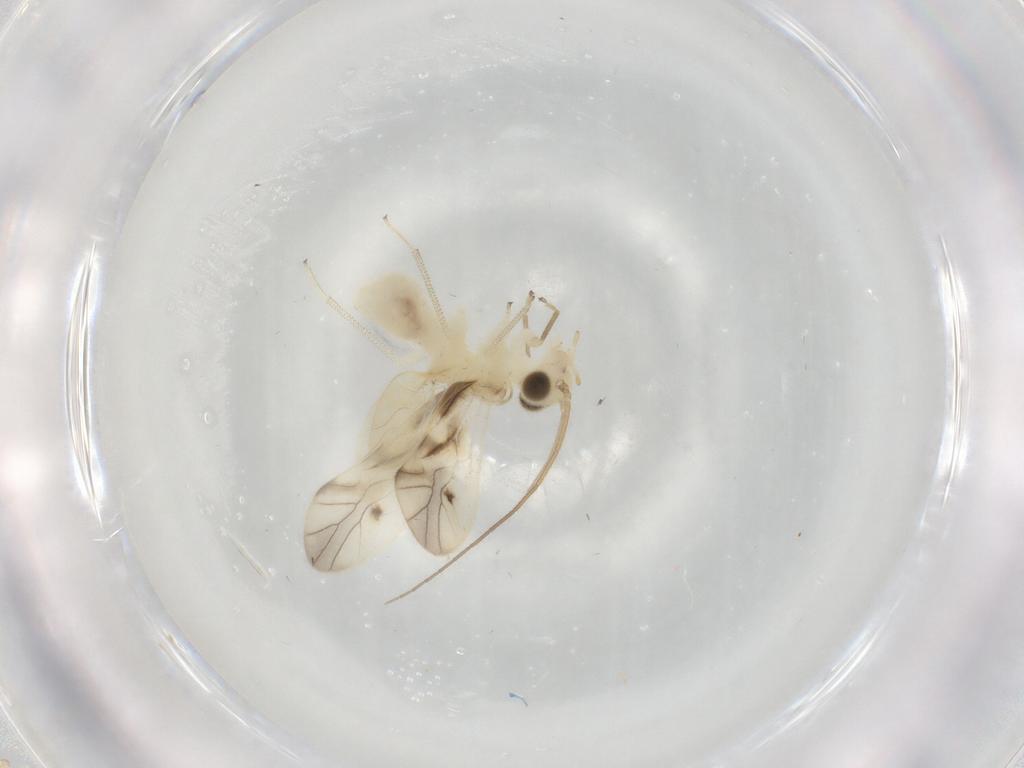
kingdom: Animalia
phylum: Arthropoda
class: Insecta
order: Psocodea
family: Caeciliusidae
